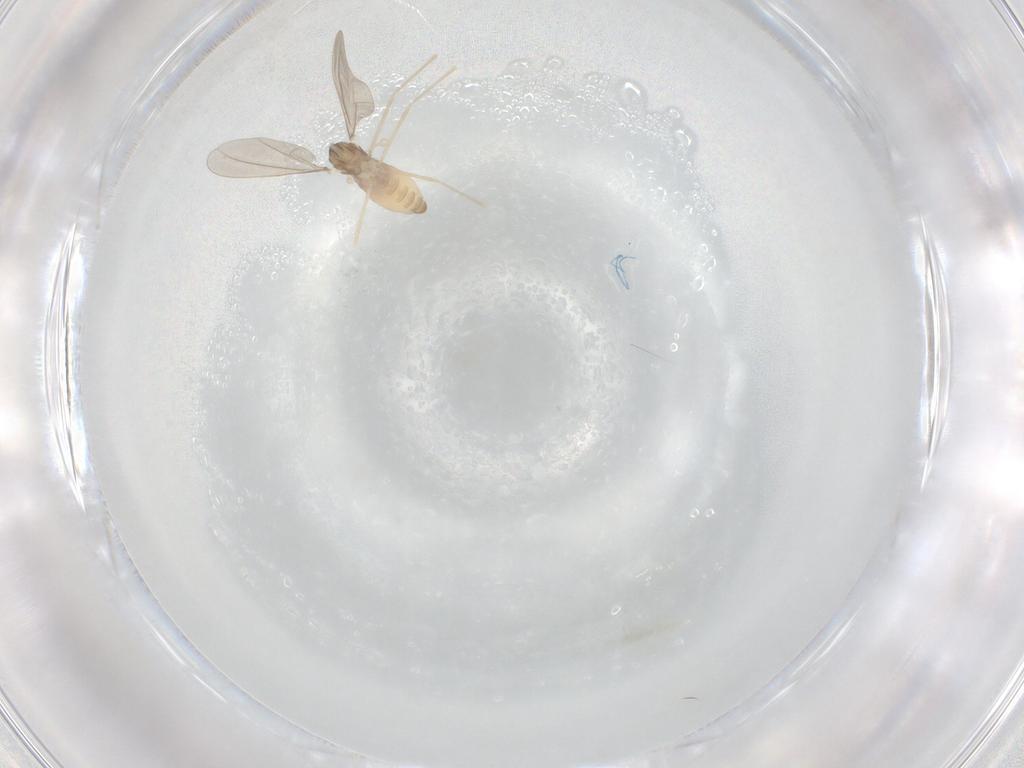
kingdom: Animalia
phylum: Arthropoda
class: Insecta
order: Diptera
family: Cecidomyiidae
